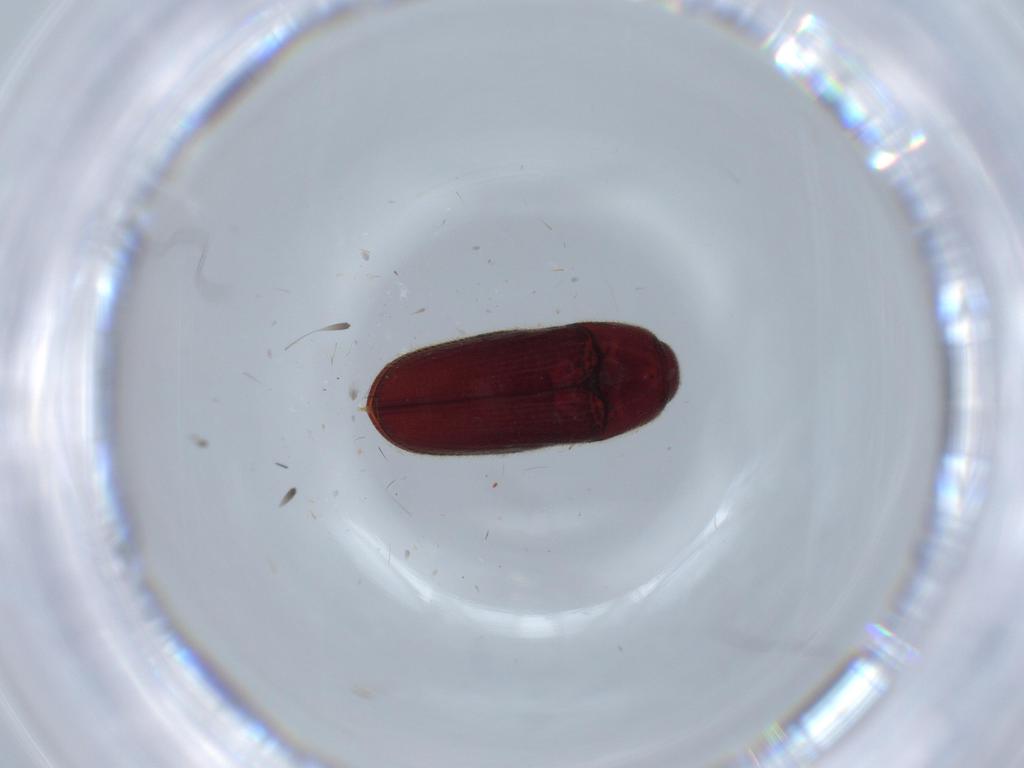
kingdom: Animalia
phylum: Arthropoda
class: Insecta
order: Coleoptera
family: Throscidae
